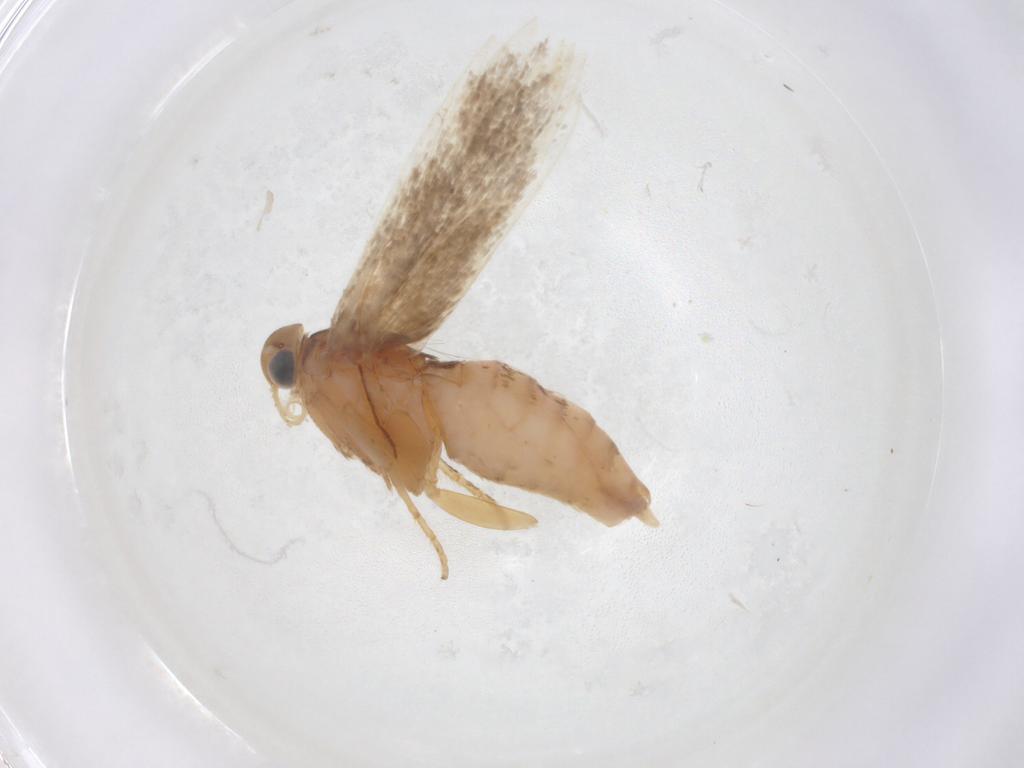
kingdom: Animalia
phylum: Arthropoda
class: Insecta
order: Lepidoptera
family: Gelechiidae
